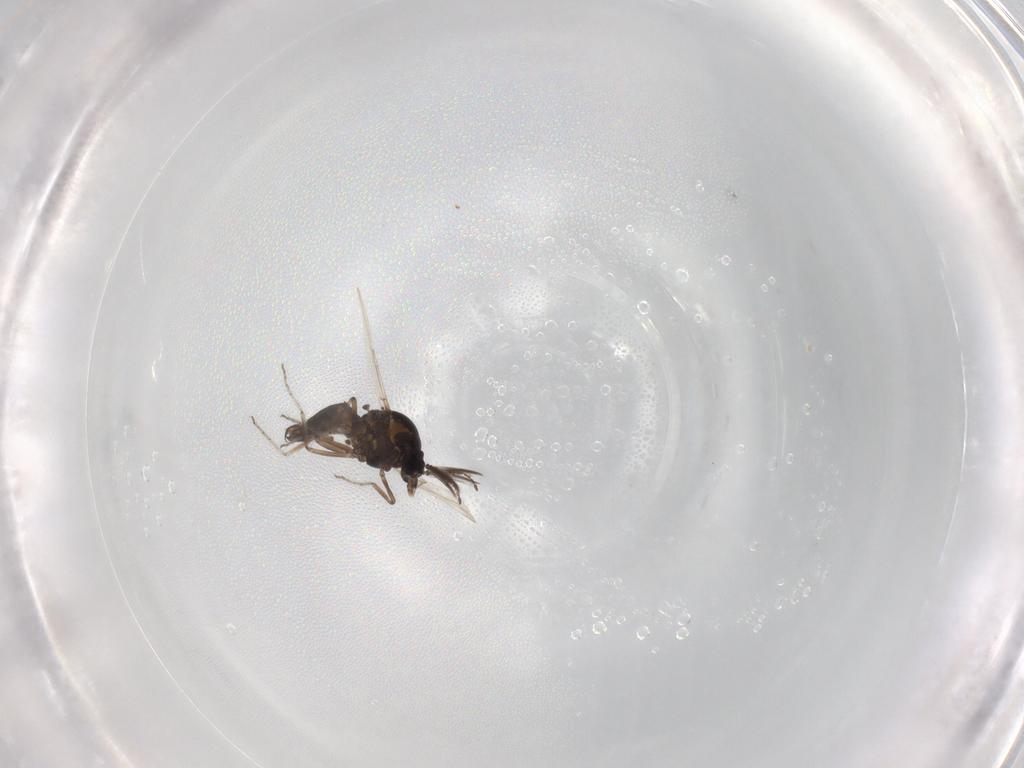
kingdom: Animalia
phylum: Arthropoda
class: Insecta
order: Diptera
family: Ceratopogonidae
